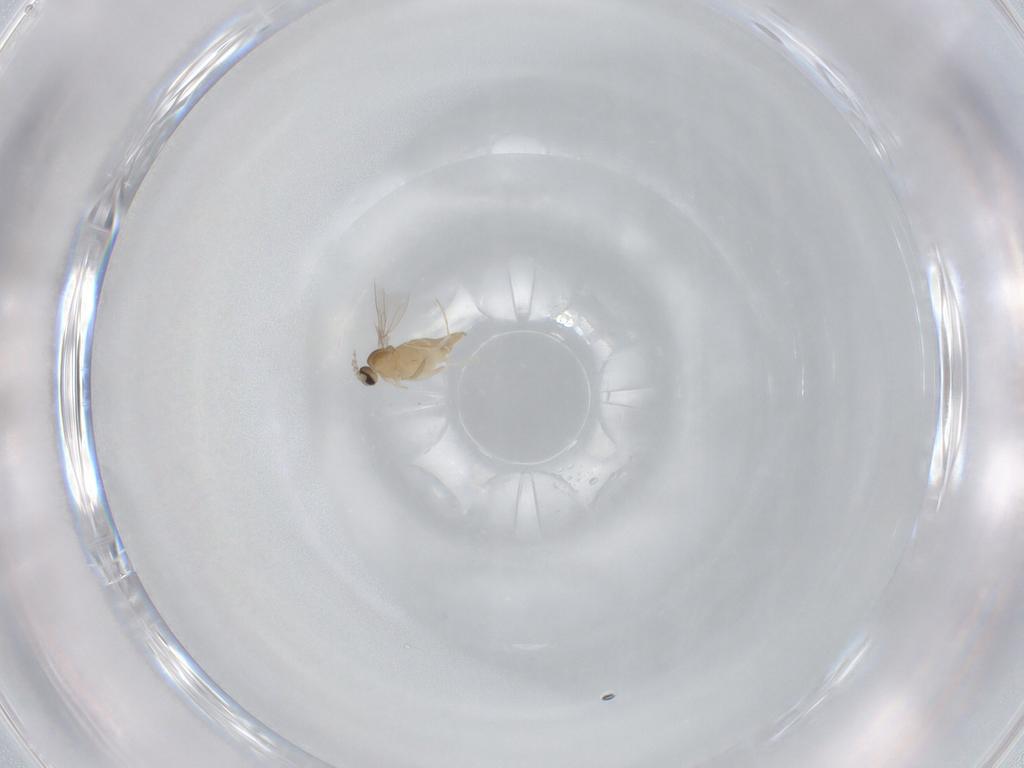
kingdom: Animalia
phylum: Arthropoda
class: Insecta
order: Diptera
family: Cecidomyiidae
